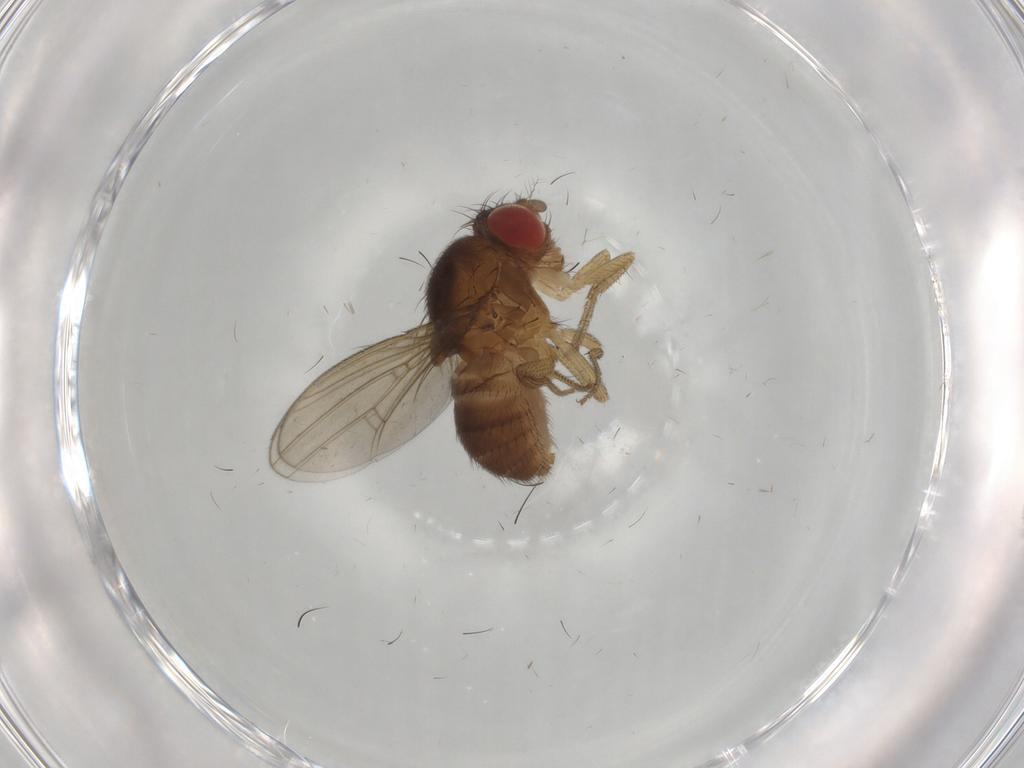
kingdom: Animalia
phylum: Arthropoda
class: Insecta
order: Diptera
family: Drosophilidae
